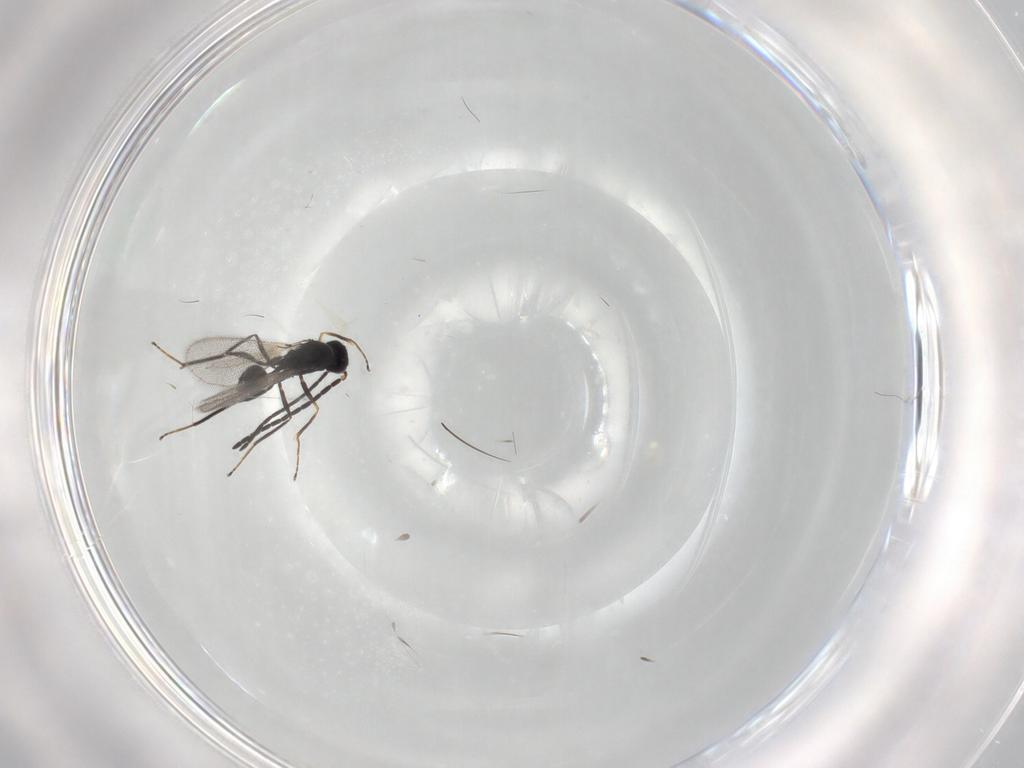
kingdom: Animalia
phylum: Arthropoda
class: Insecta
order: Hymenoptera
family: Mymaridae
